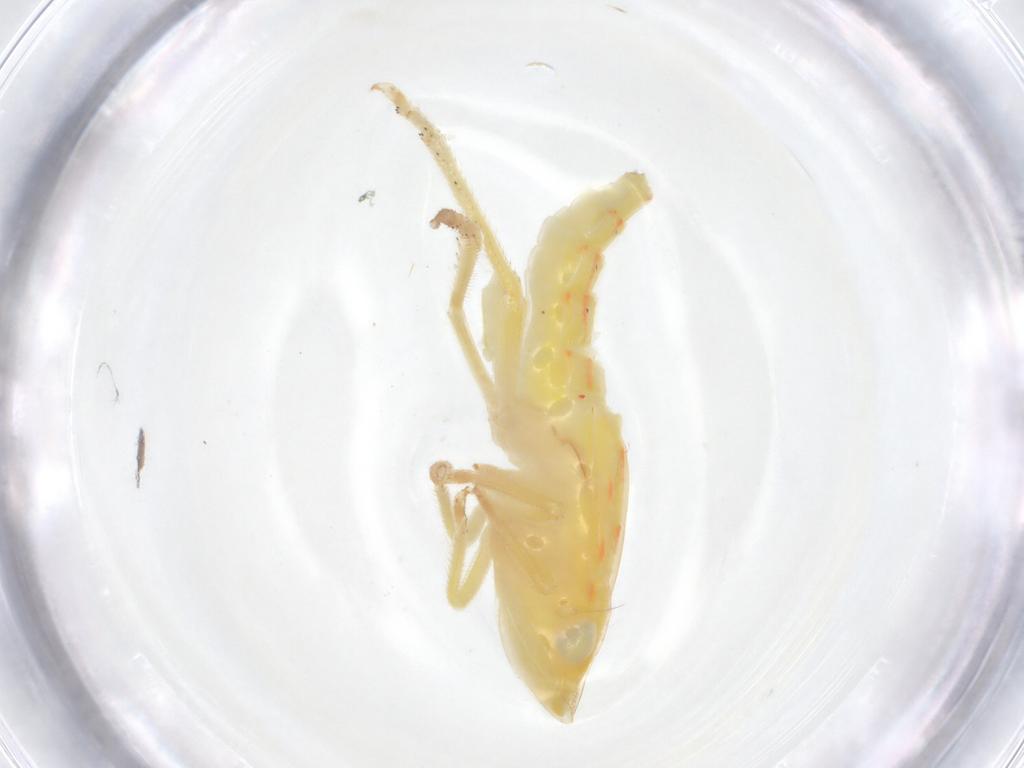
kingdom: Animalia
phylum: Arthropoda
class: Insecta
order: Hemiptera
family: Tropiduchidae
